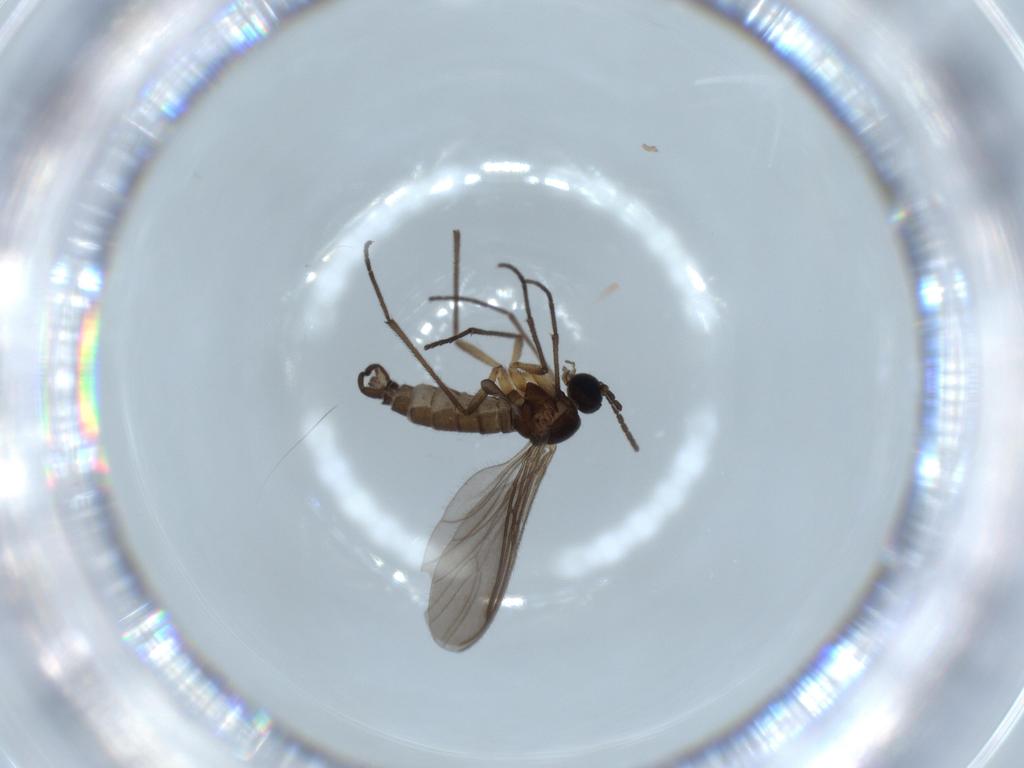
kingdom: Animalia
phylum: Arthropoda
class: Insecta
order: Diptera
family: Sciaridae
